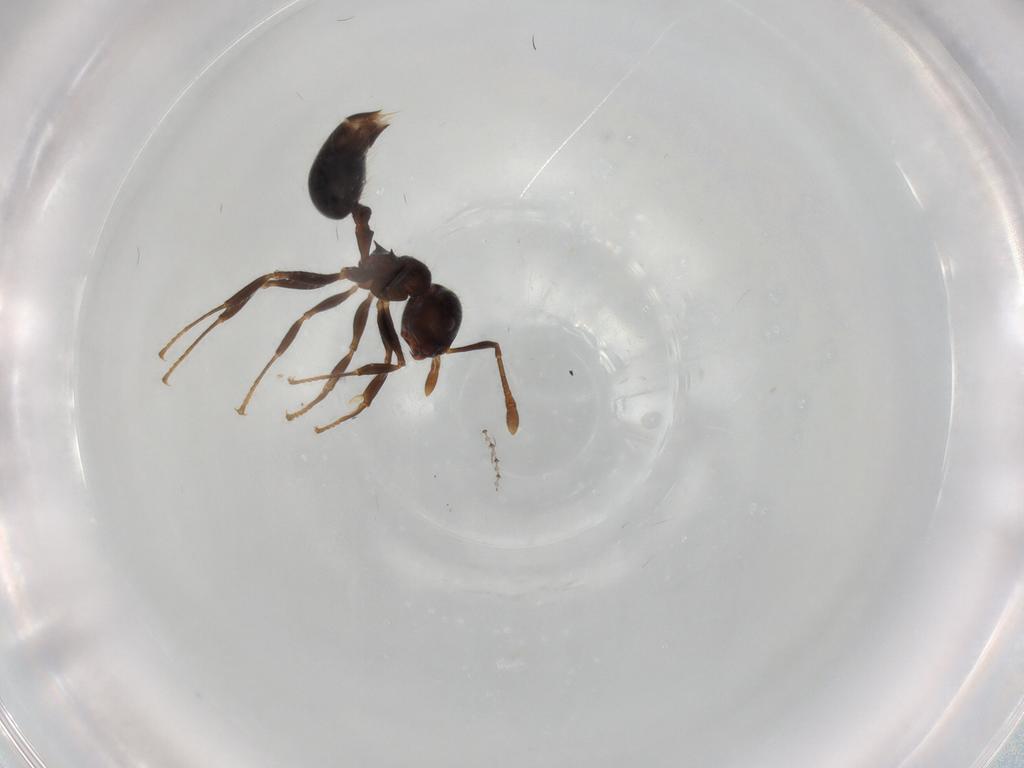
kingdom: Animalia
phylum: Arthropoda
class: Insecta
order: Hymenoptera
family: Formicidae
